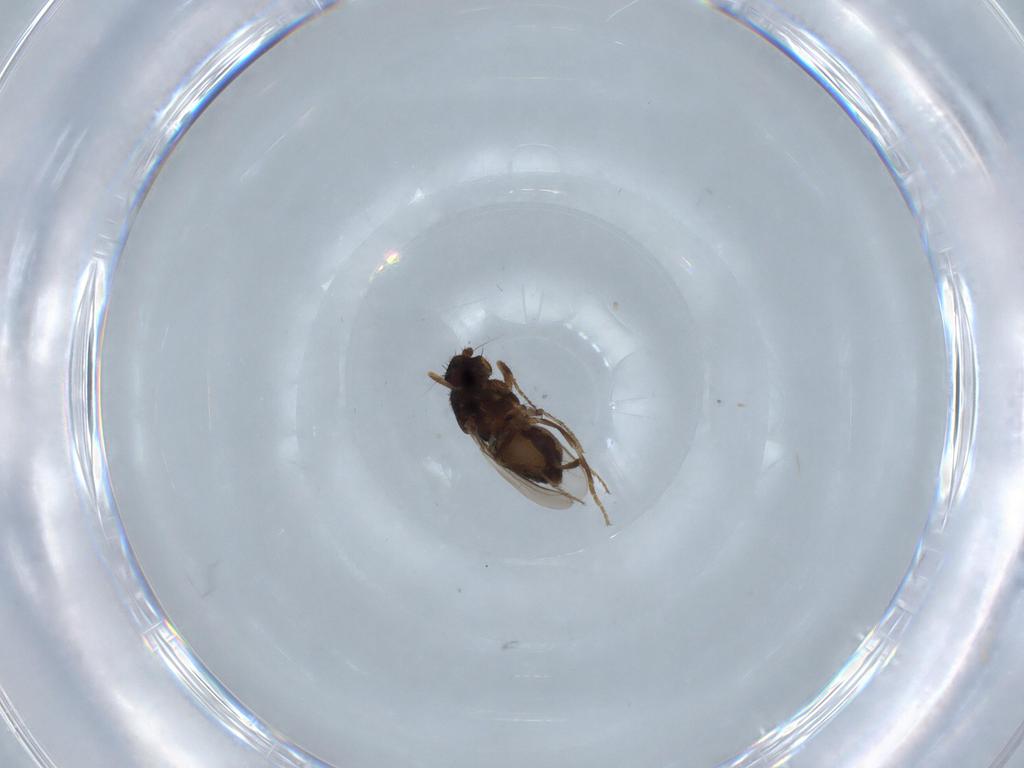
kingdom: Animalia
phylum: Arthropoda
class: Insecta
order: Diptera
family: Sphaeroceridae
